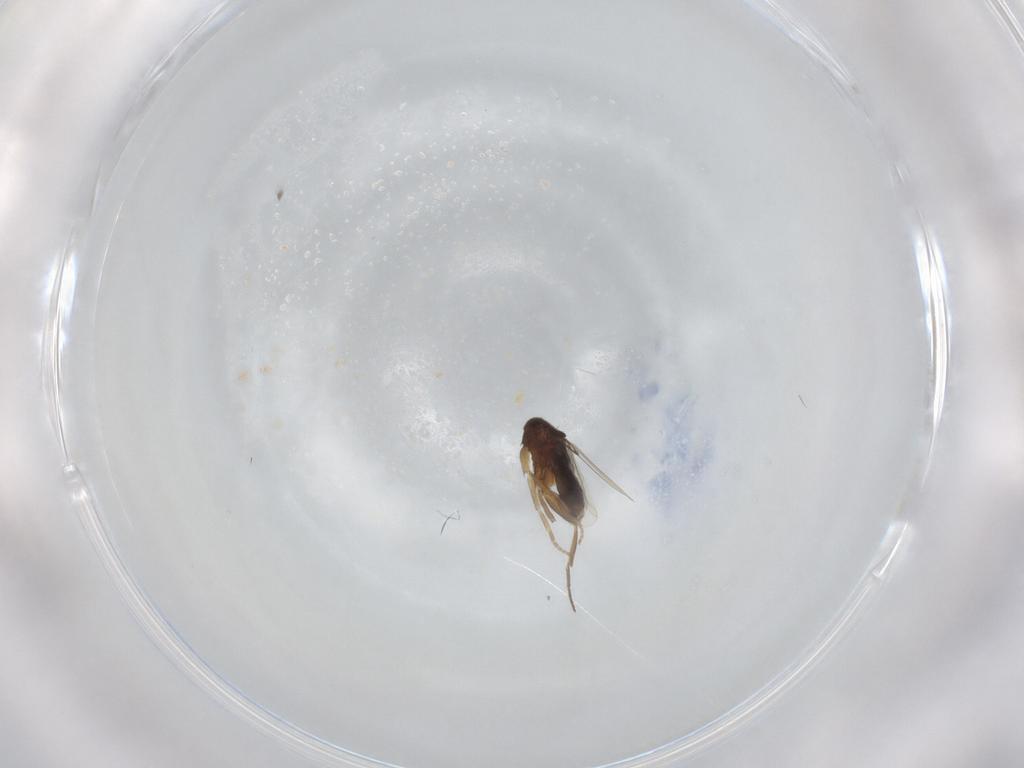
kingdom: Animalia
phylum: Arthropoda
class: Insecta
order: Diptera
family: Phoridae
